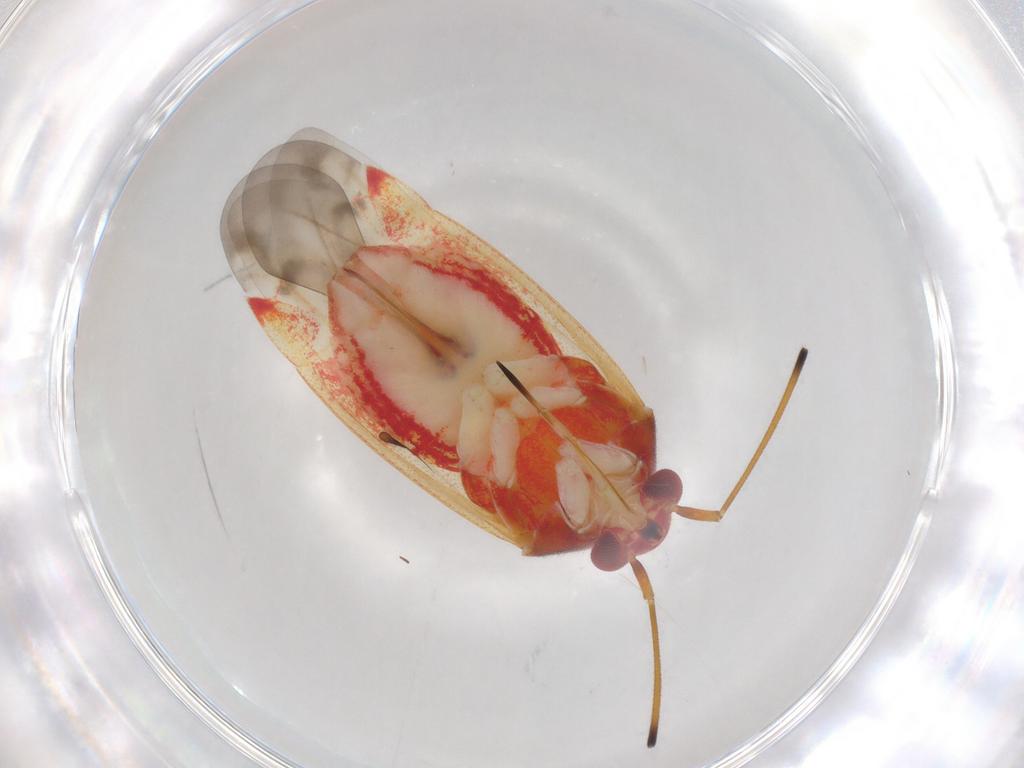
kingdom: Animalia
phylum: Arthropoda
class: Insecta
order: Hemiptera
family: Miridae
